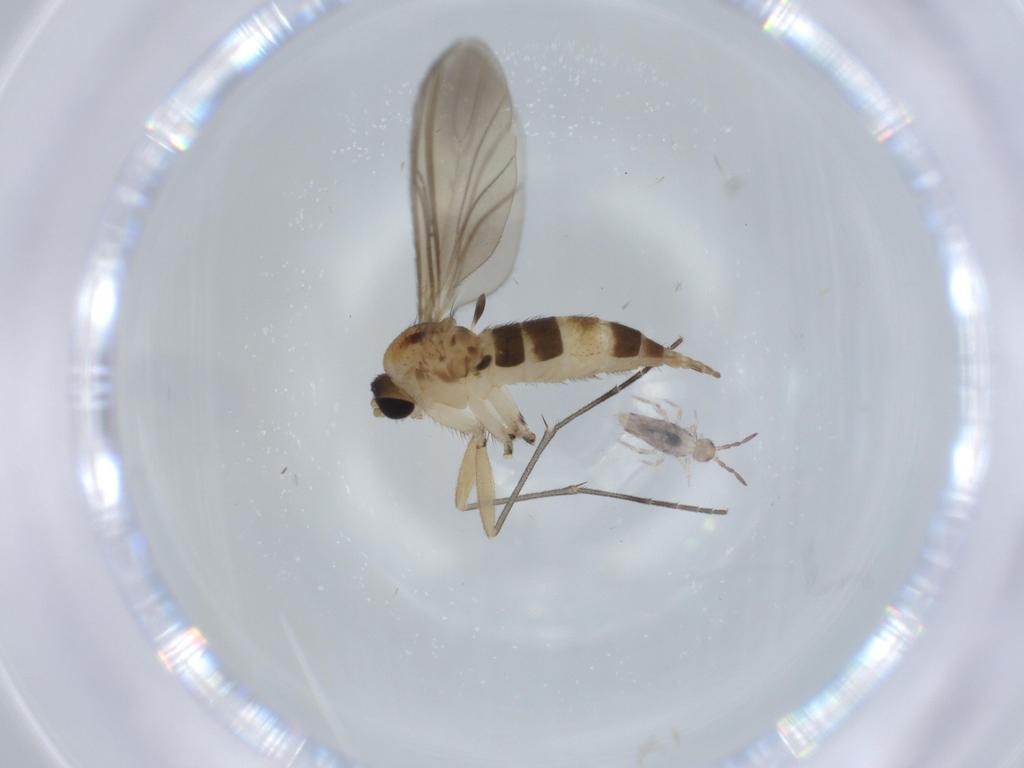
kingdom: Animalia
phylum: Arthropoda
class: Insecta
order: Diptera
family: Sciaridae
